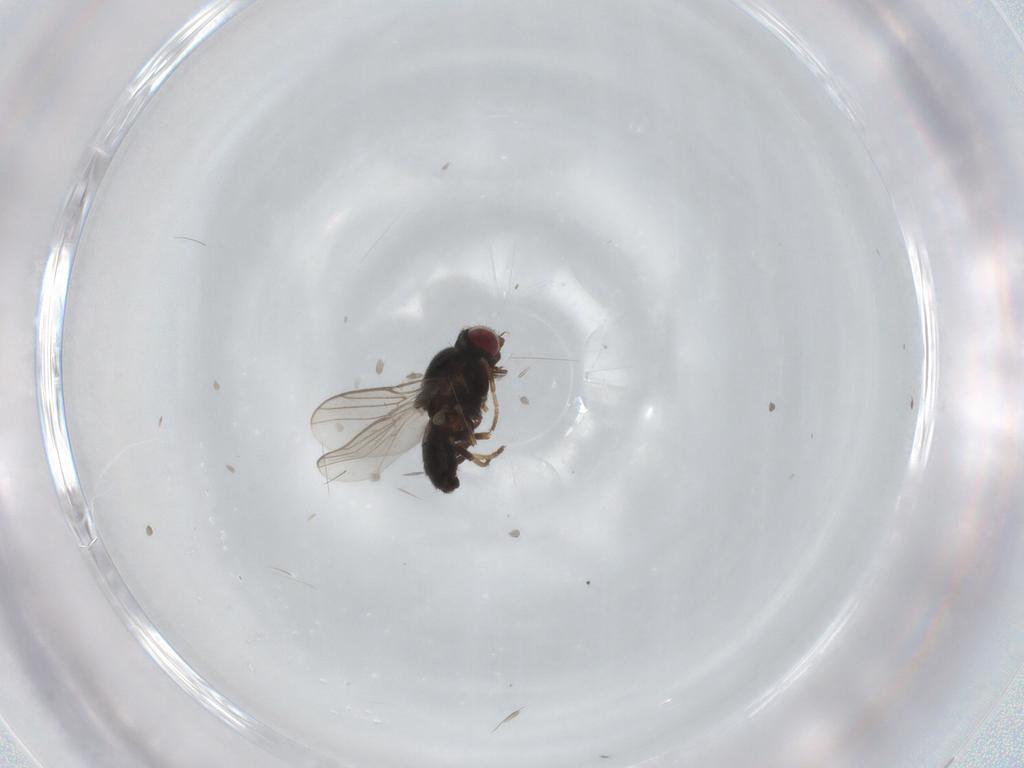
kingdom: Animalia
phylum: Arthropoda
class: Insecta
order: Diptera
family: Chloropidae
